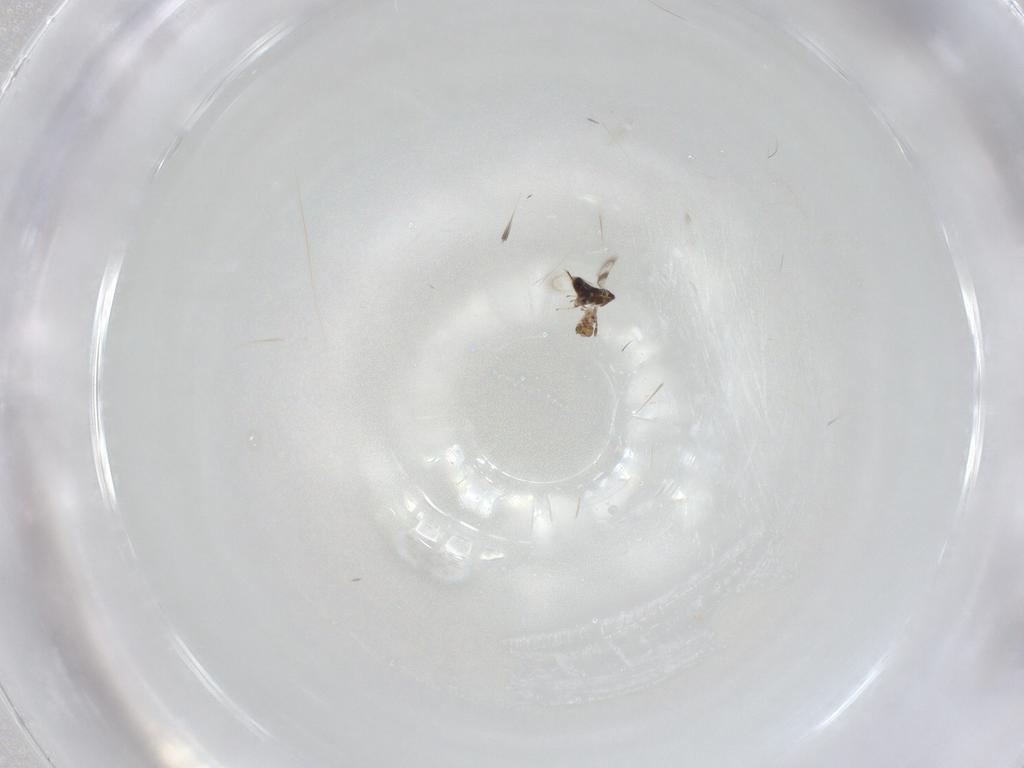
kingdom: Animalia
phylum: Arthropoda
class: Insecta
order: Hymenoptera
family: Azotidae
